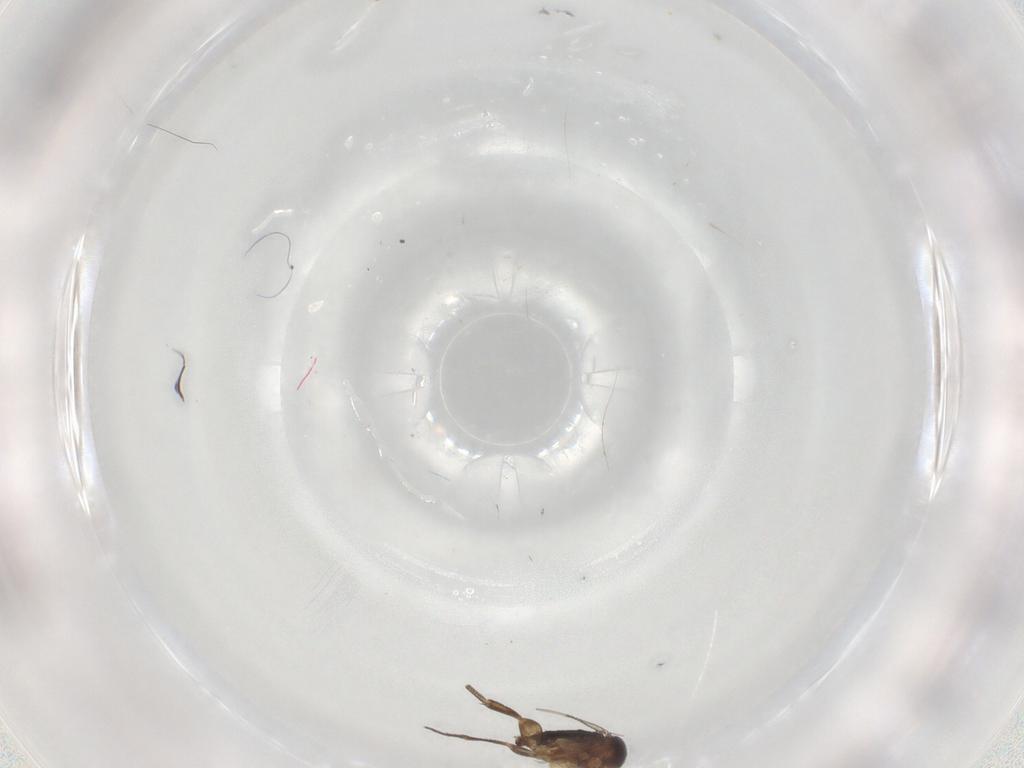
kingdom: Animalia
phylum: Arthropoda
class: Insecta
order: Diptera
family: Phoridae
